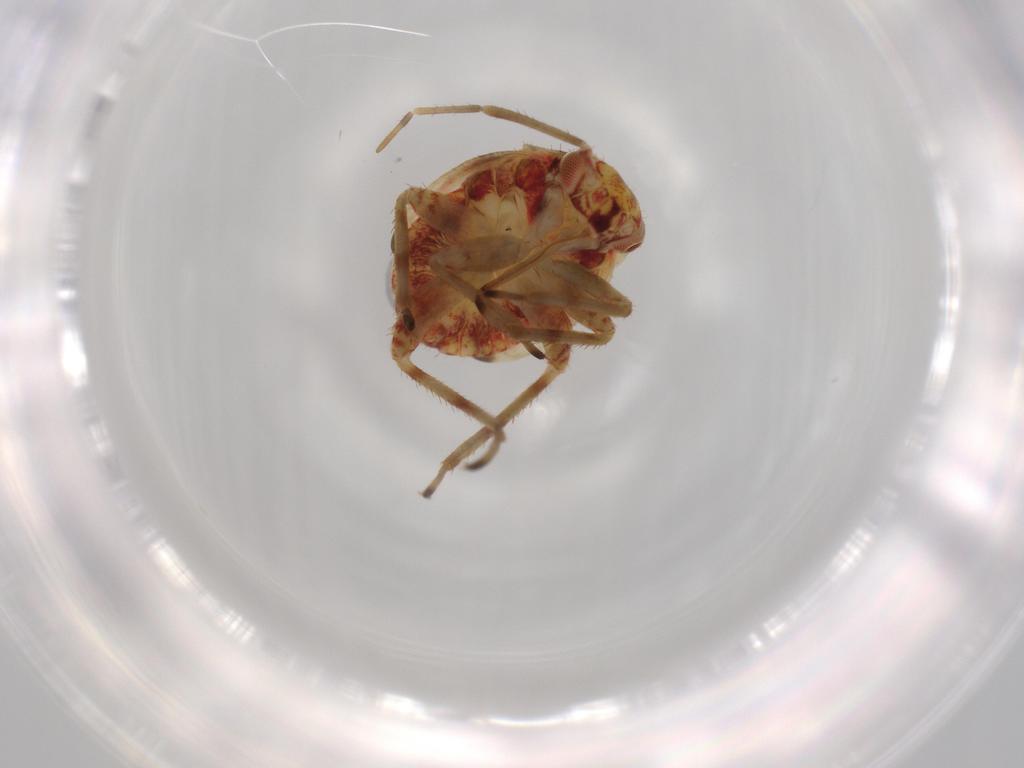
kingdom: Animalia
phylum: Arthropoda
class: Insecta
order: Hemiptera
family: Miridae
